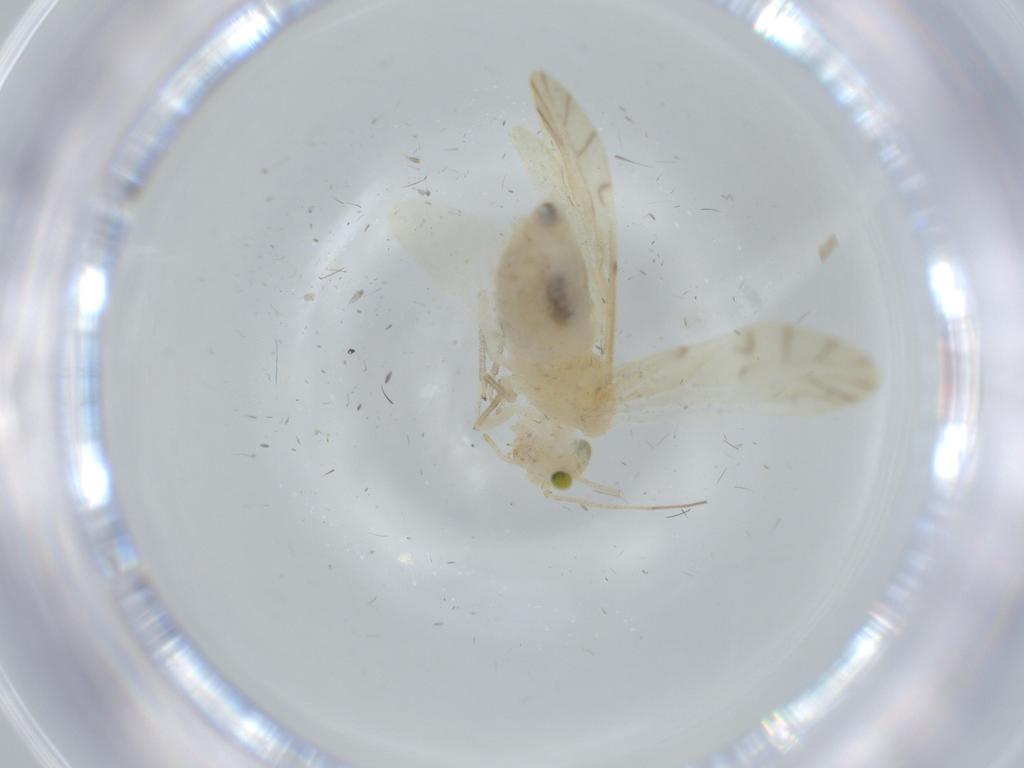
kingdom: Animalia
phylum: Arthropoda
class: Insecta
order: Psocodea
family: Caeciliusidae
